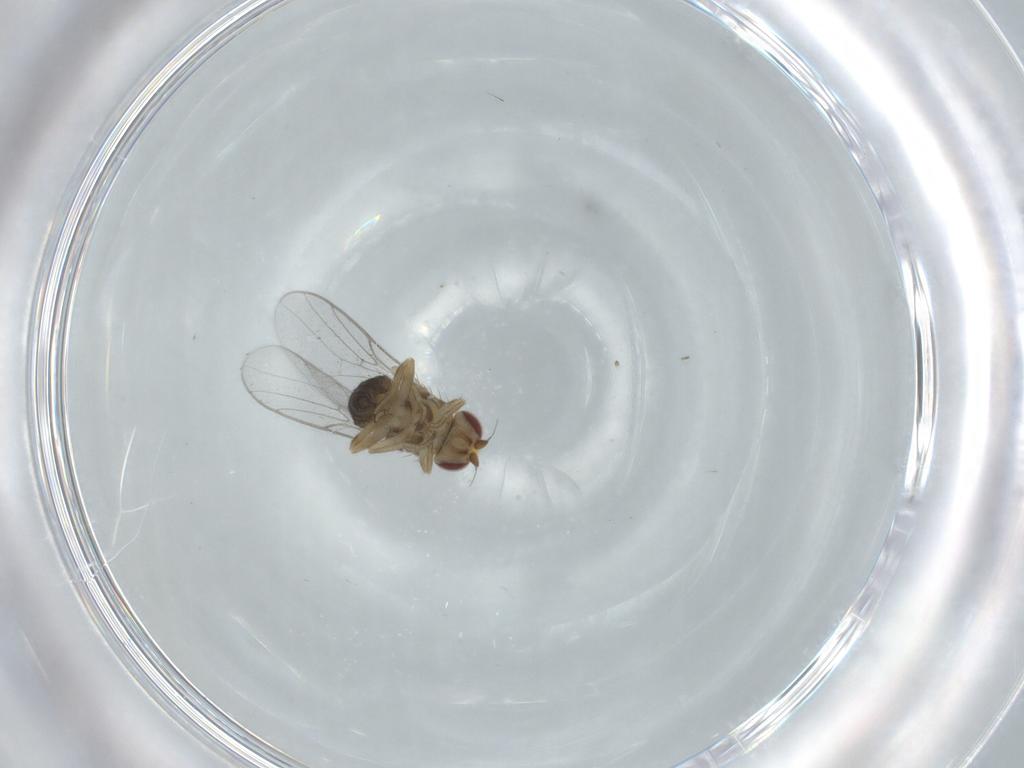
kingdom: Animalia
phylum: Arthropoda
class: Insecta
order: Diptera
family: Chloropidae
